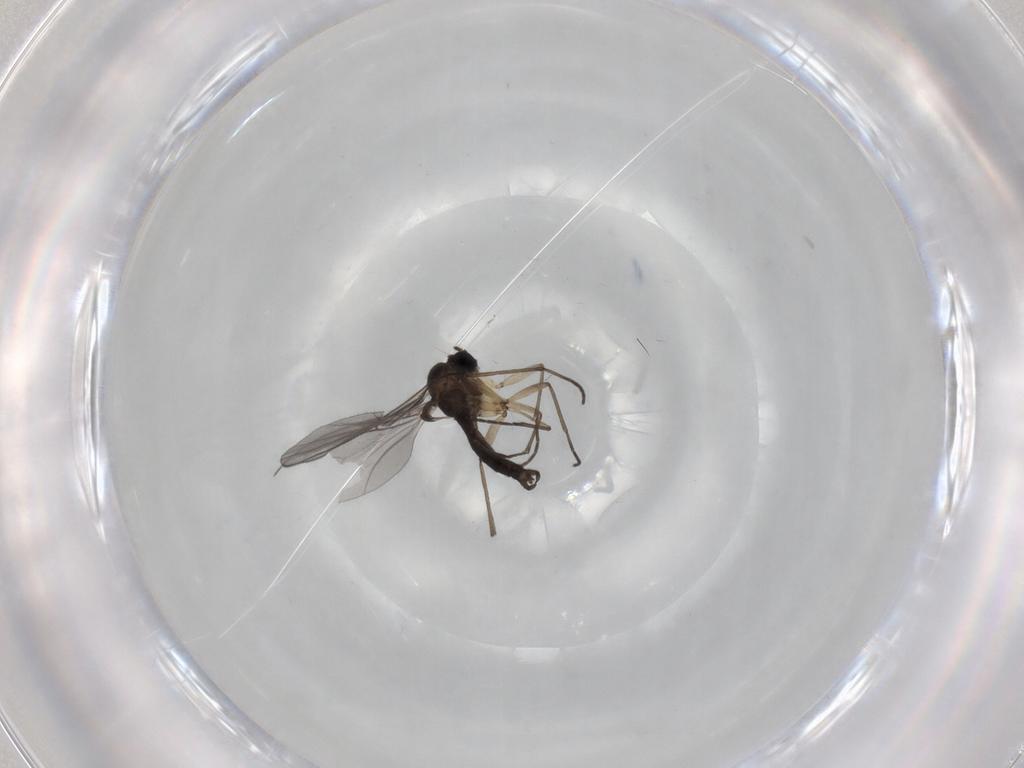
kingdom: Animalia
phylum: Arthropoda
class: Insecta
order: Diptera
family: Sciaridae
